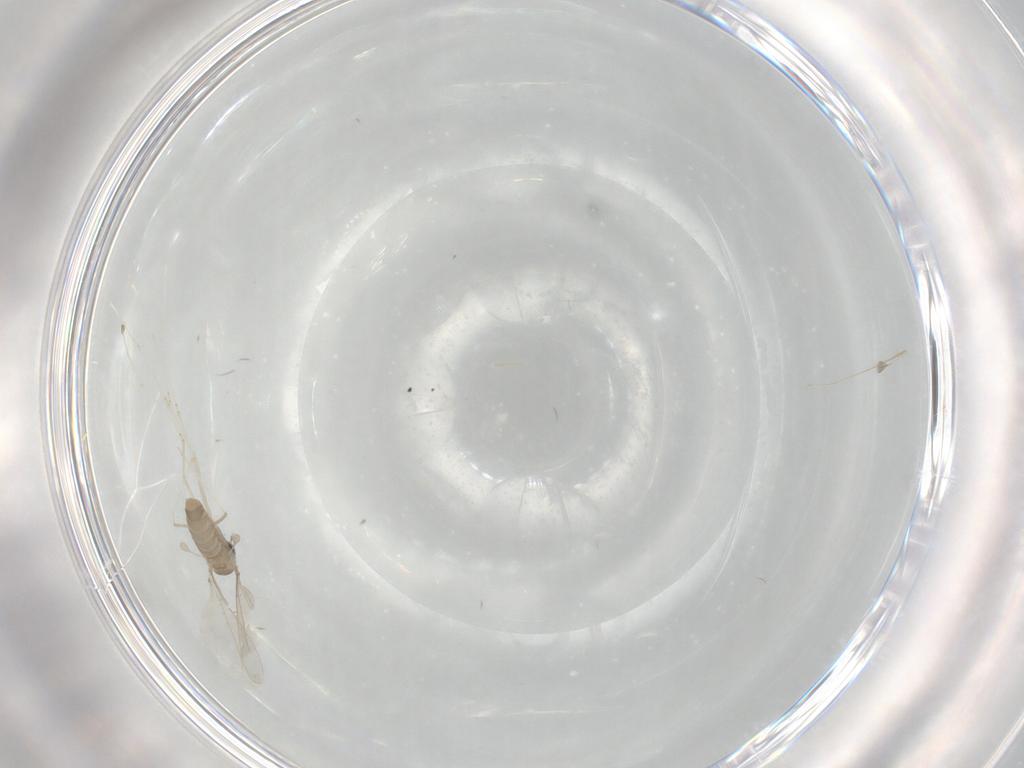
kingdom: Animalia
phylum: Arthropoda
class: Insecta
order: Diptera
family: Cecidomyiidae
